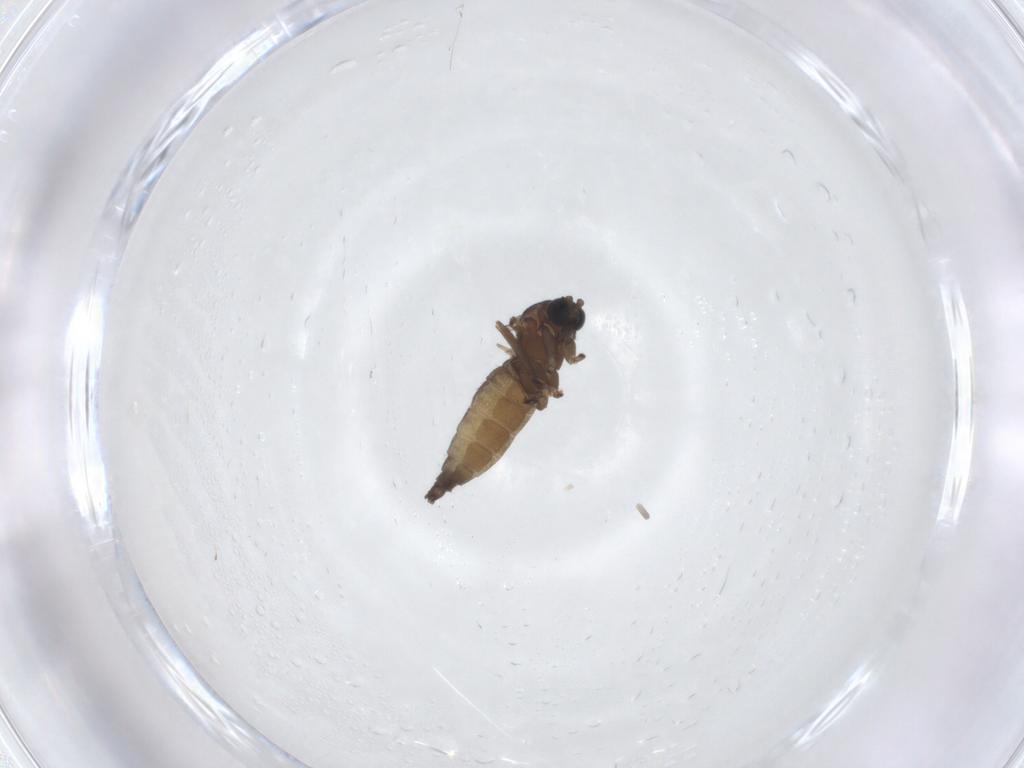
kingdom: Animalia
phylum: Arthropoda
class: Insecta
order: Diptera
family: Sciaridae
